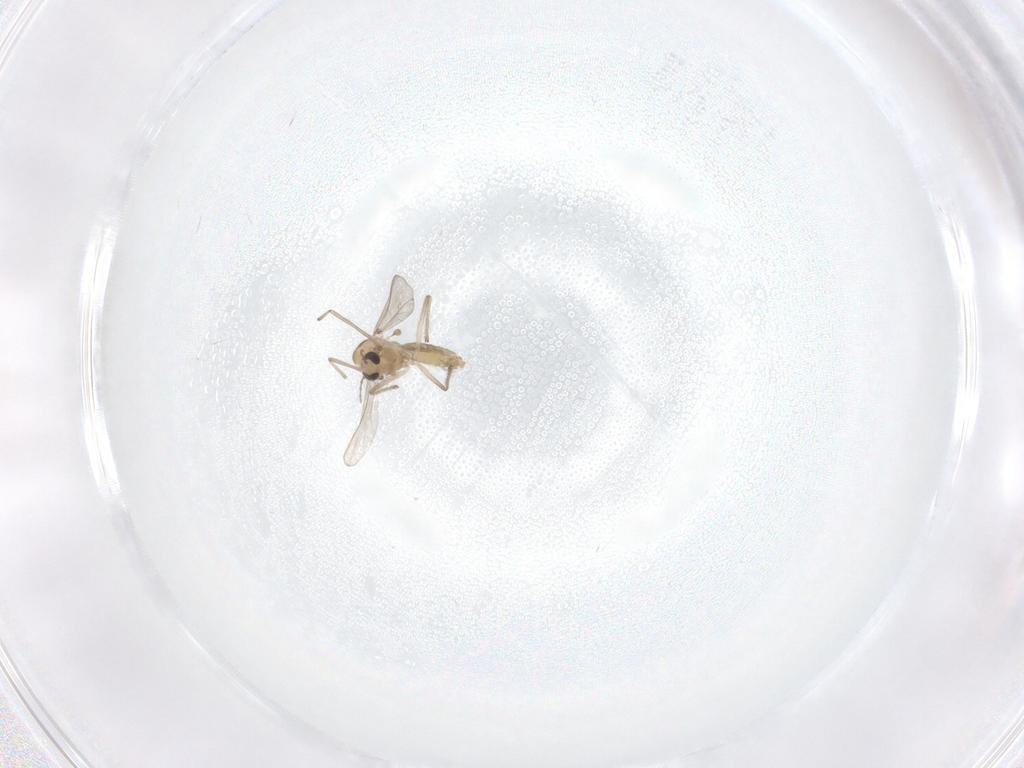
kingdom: Animalia
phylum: Arthropoda
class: Insecta
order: Diptera
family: Chironomidae
